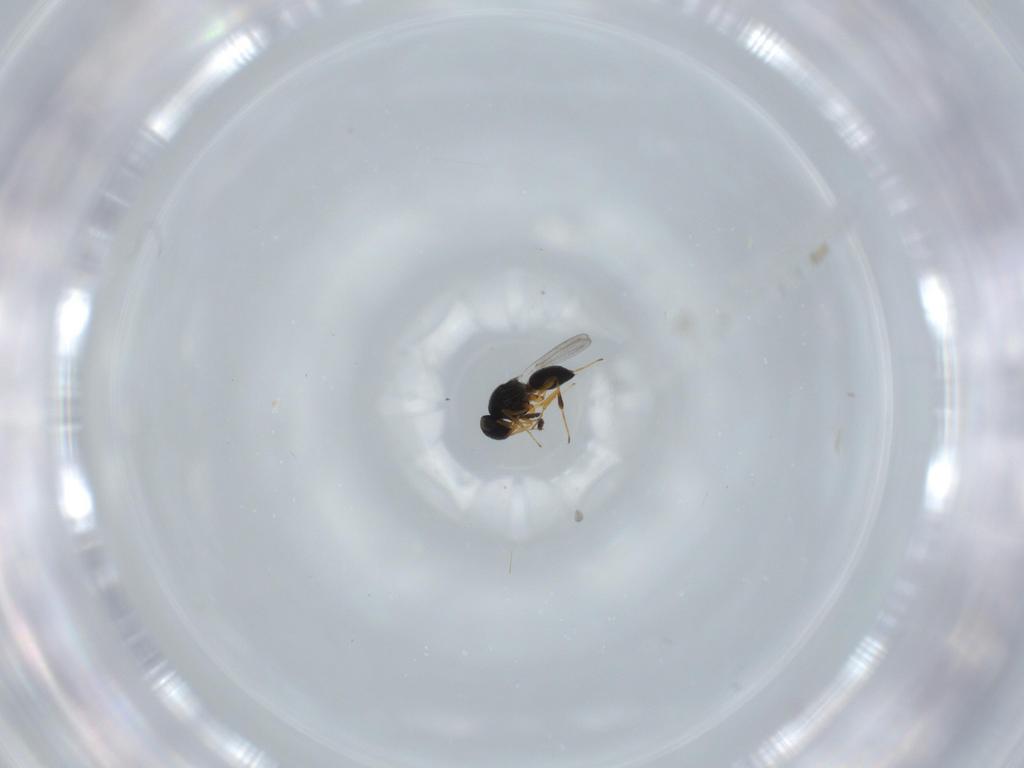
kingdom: Animalia
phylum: Arthropoda
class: Insecta
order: Hymenoptera
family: Platygastridae
